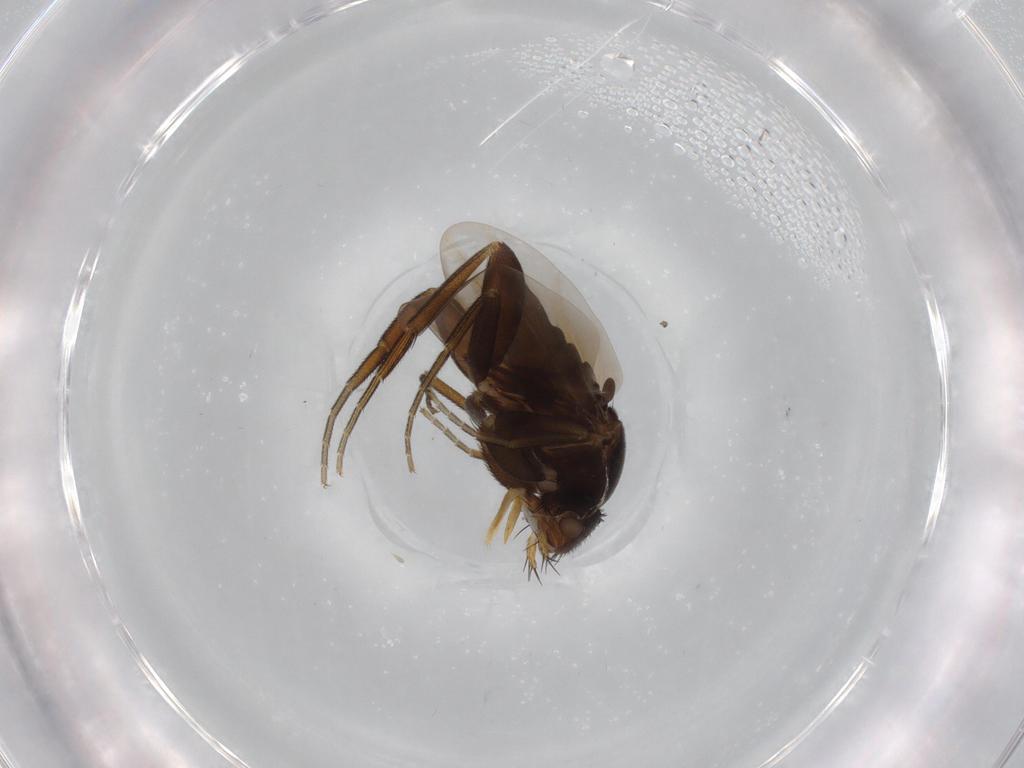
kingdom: Animalia
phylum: Arthropoda
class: Insecta
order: Diptera
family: Phoridae
